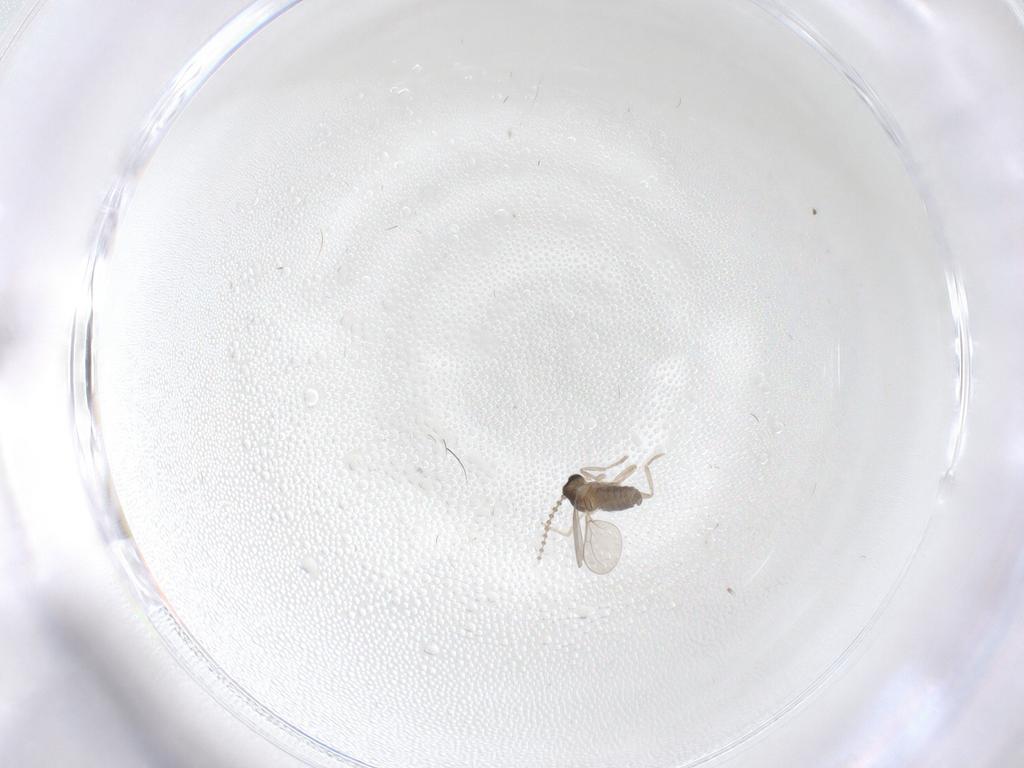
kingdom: Animalia
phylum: Arthropoda
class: Insecta
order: Diptera
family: Cecidomyiidae
